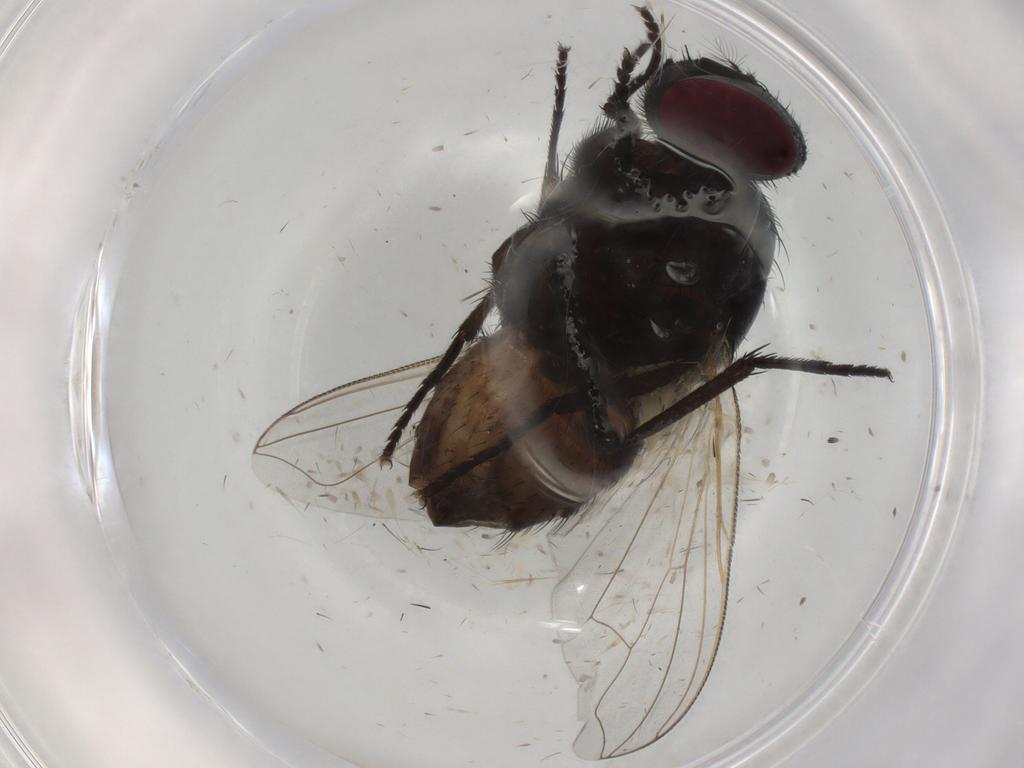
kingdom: Animalia
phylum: Arthropoda
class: Insecta
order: Diptera
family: Muscidae
